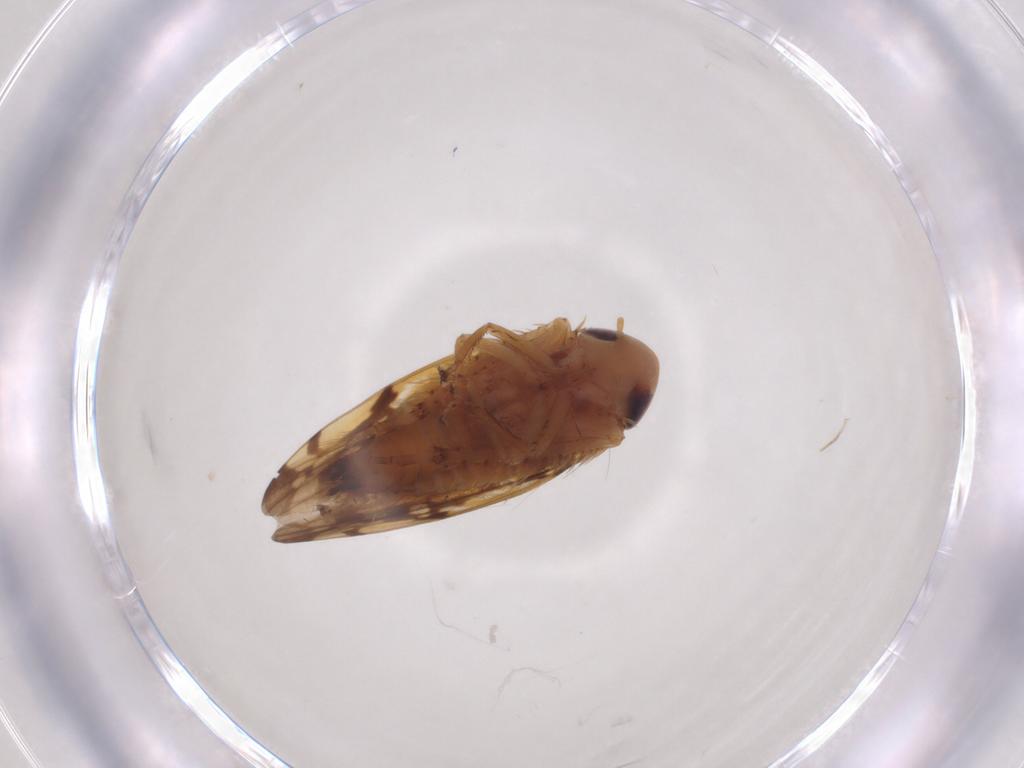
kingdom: Animalia
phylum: Arthropoda
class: Insecta
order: Hemiptera
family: Cicadellidae
